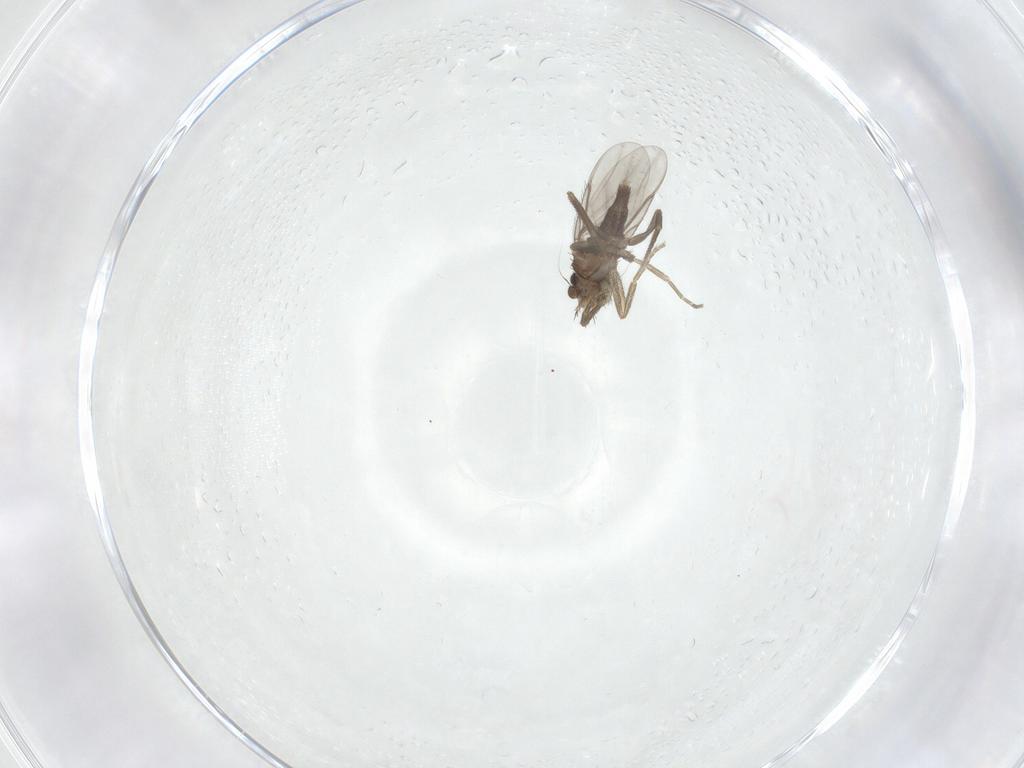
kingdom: Animalia
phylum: Arthropoda
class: Insecta
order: Diptera
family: Phoridae
